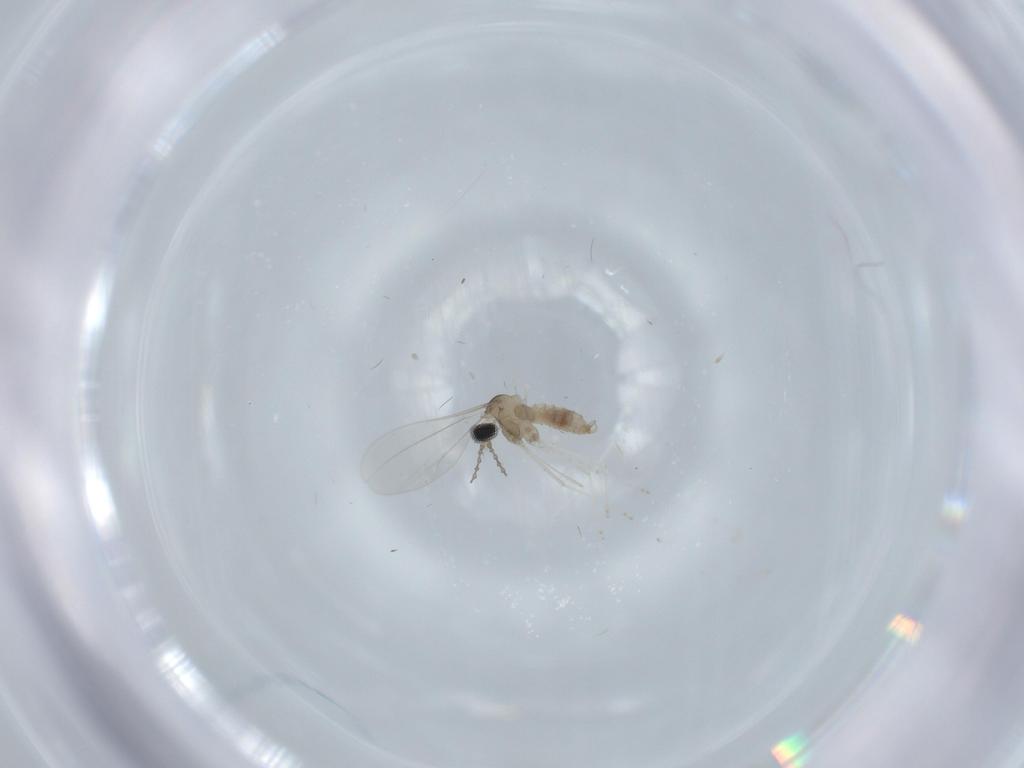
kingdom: Animalia
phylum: Arthropoda
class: Insecta
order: Diptera
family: Cecidomyiidae
